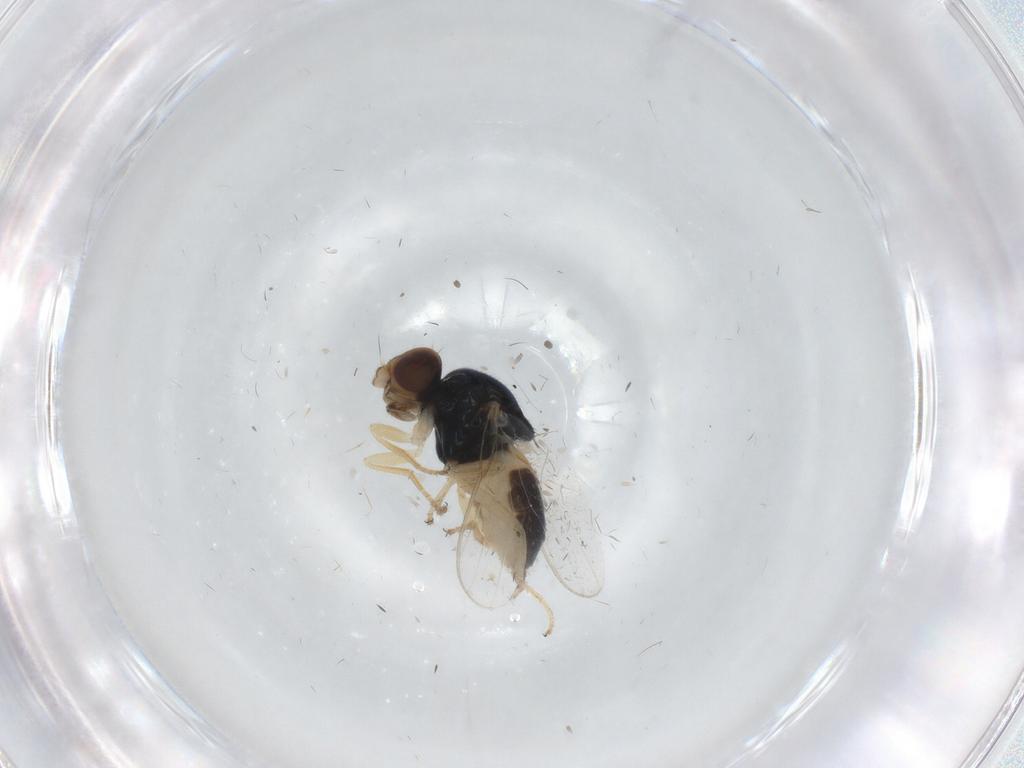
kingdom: Animalia
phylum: Arthropoda
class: Insecta
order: Diptera
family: Chloropidae
